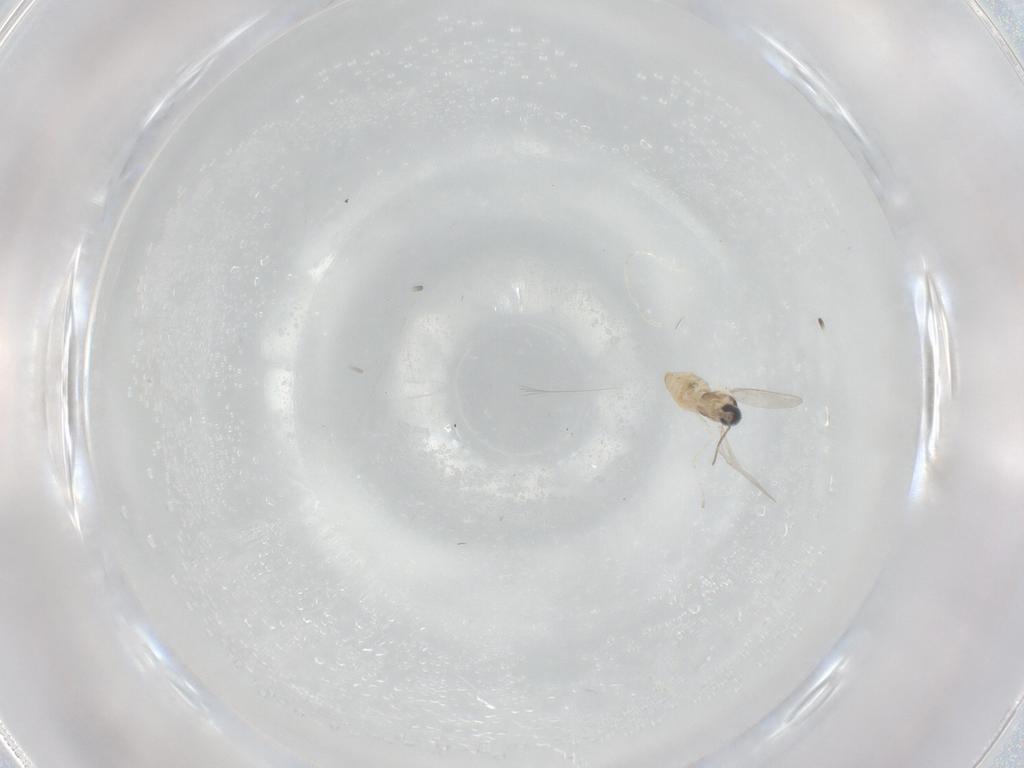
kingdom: Animalia
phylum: Arthropoda
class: Insecta
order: Diptera
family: Cecidomyiidae
